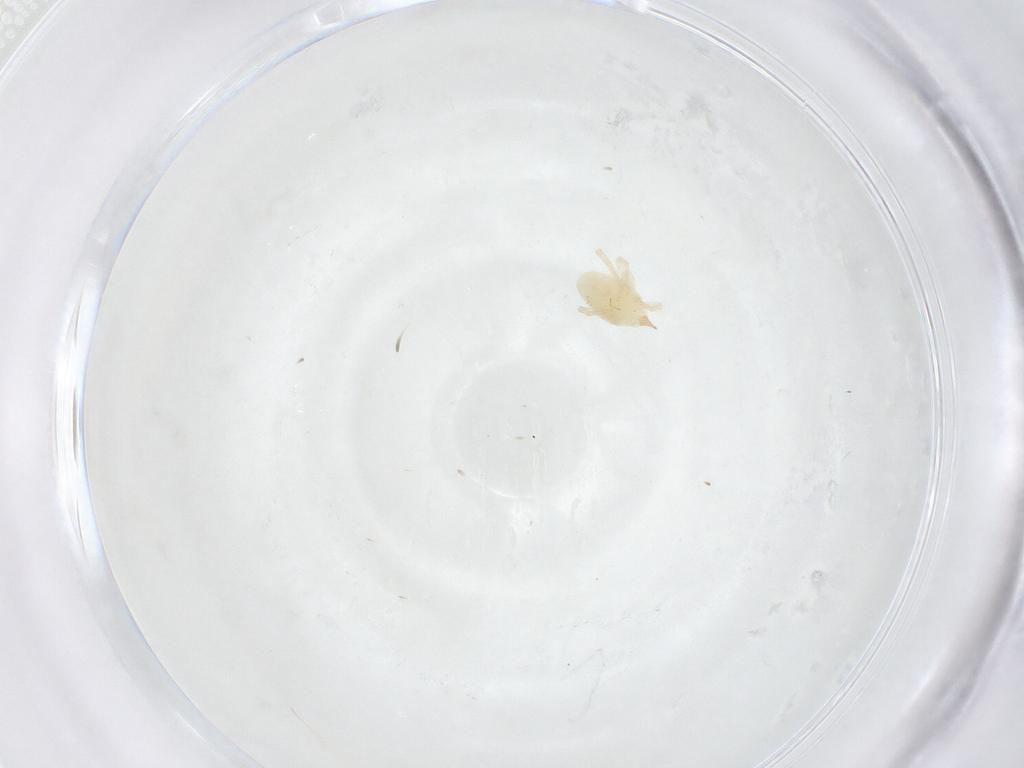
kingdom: Animalia
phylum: Arthropoda
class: Arachnida
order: Trombidiformes
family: Bdellidae
